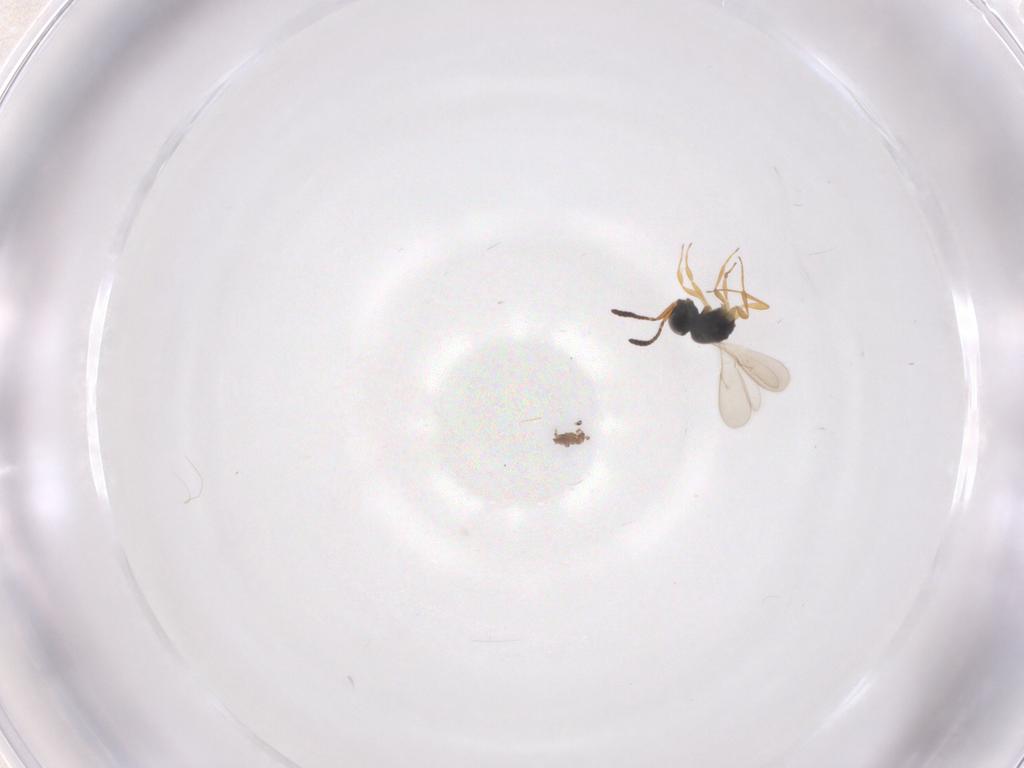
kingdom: Animalia
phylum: Arthropoda
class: Insecta
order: Hymenoptera
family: Scelionidae
